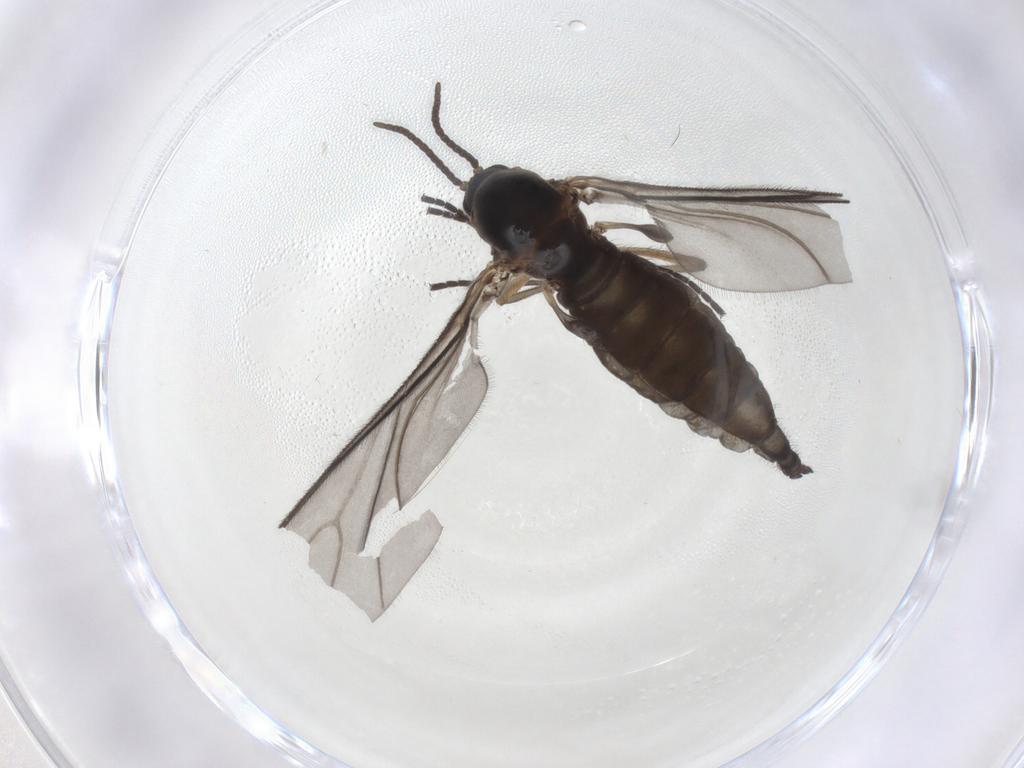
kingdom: Animalia
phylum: Arthropoda
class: Insecta
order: Diptera
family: Sciaridae
